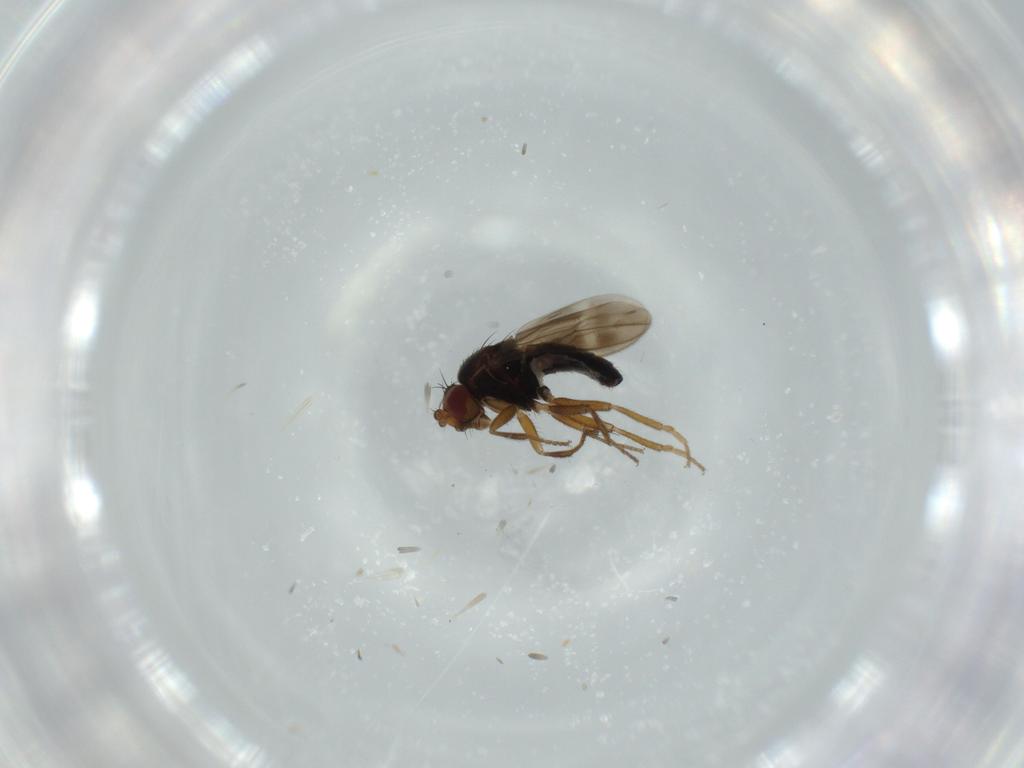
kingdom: Animalia
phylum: Arthropoda
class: Insecta
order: Diptera
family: Sphaeroceridae
